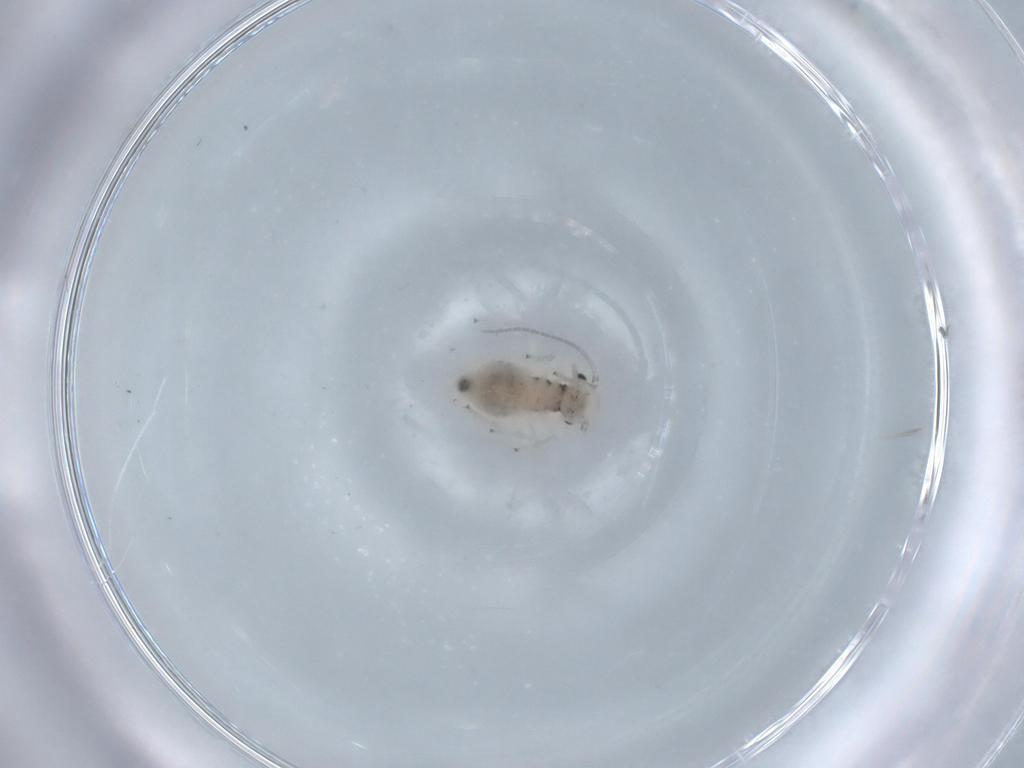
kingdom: Animalia
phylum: Arthropoda
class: Insecta
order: Psocodea
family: Caeciliusidae
